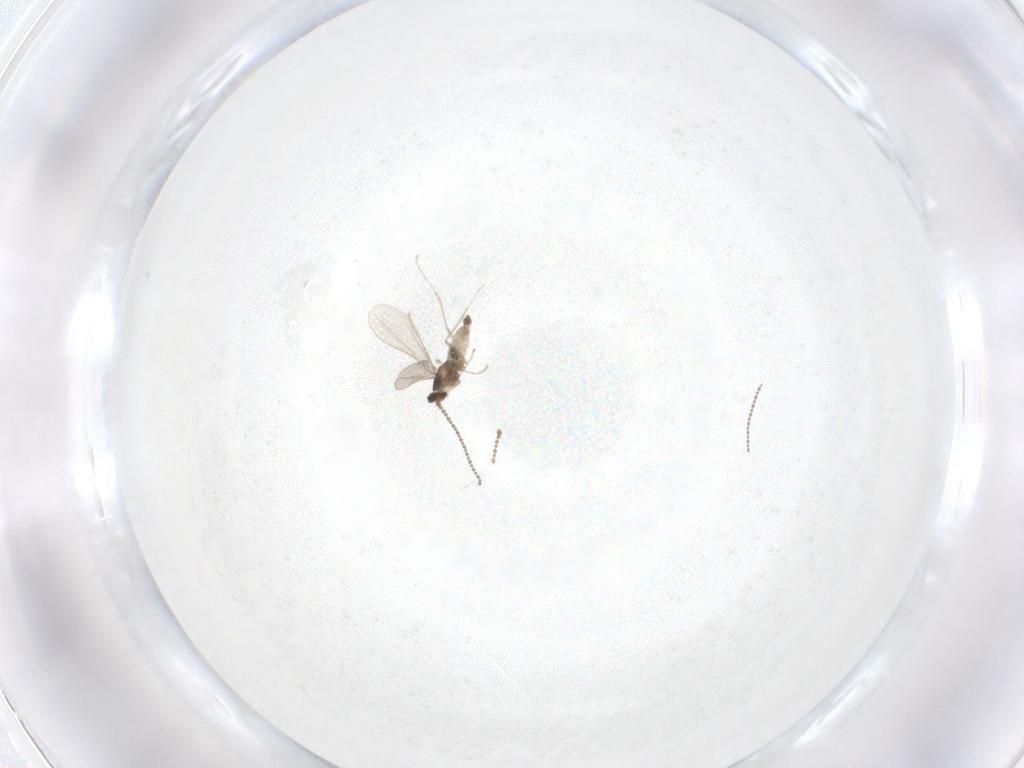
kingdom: Animalia
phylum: Arthropoda
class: Insecta
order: Diptera
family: Cecidomyiidae
